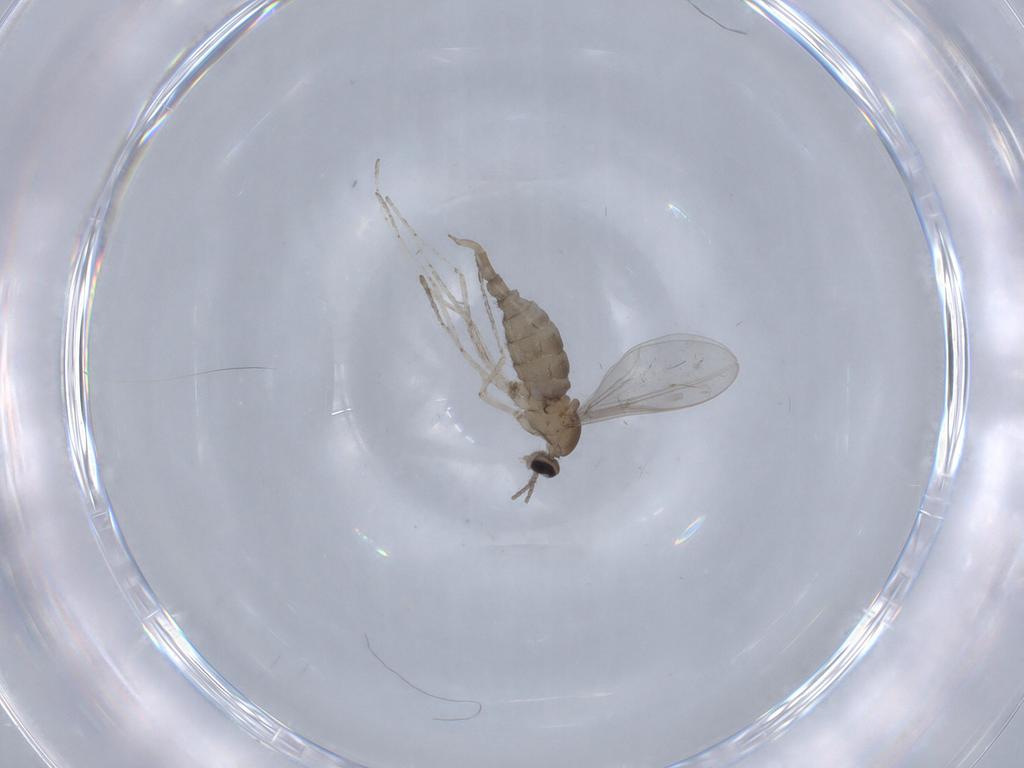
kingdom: Animalia
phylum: Arthropoda
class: Insecta
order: Diptera
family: Cecidomyiidae
